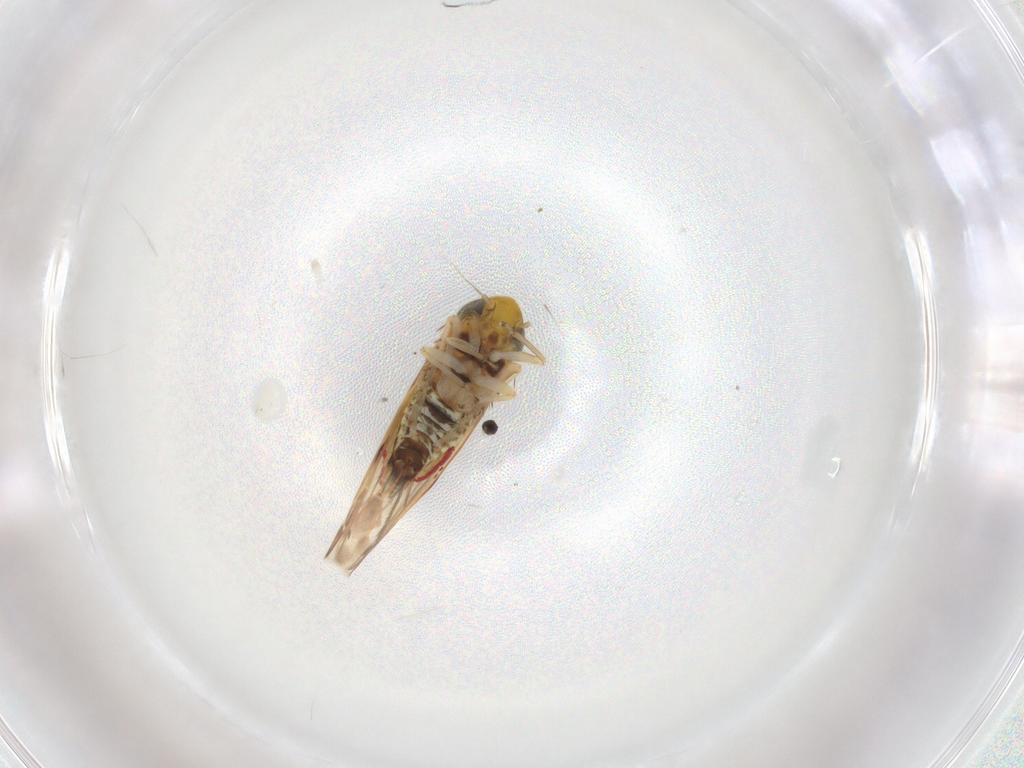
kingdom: Animalia
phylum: Arthropoda
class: Insecta
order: Hemiptera
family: Cicadellidae
